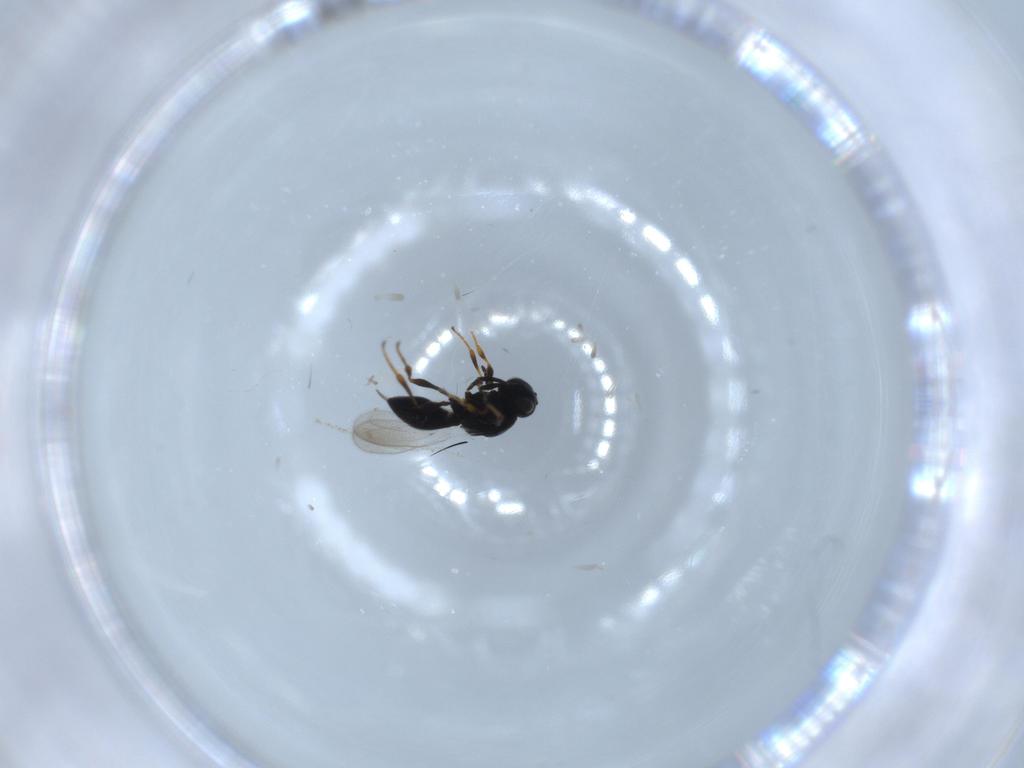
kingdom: Animalia
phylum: Arthropoda
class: Insecta
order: Hymenoptera
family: Platygastridae
